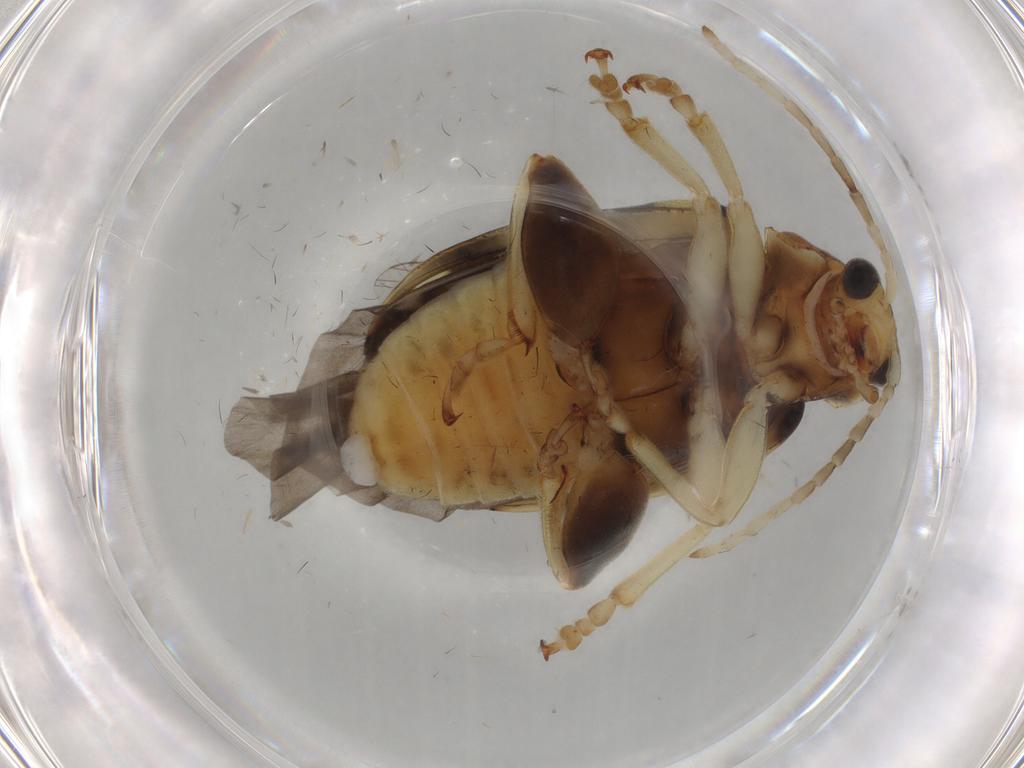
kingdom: Animalia
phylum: Arthropoda
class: Insecta
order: Coleoptera
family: Chrysomelidae
